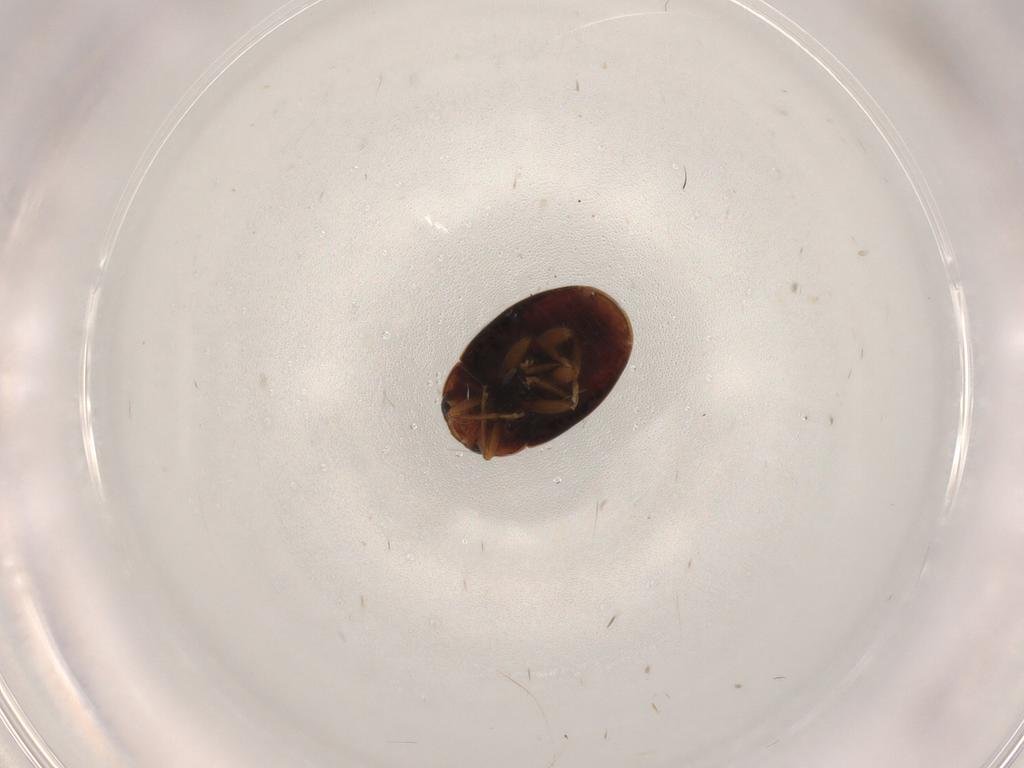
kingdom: Animalia
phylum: Arthropoda
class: Insecta
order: Coleoptera
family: Coccinellidae
